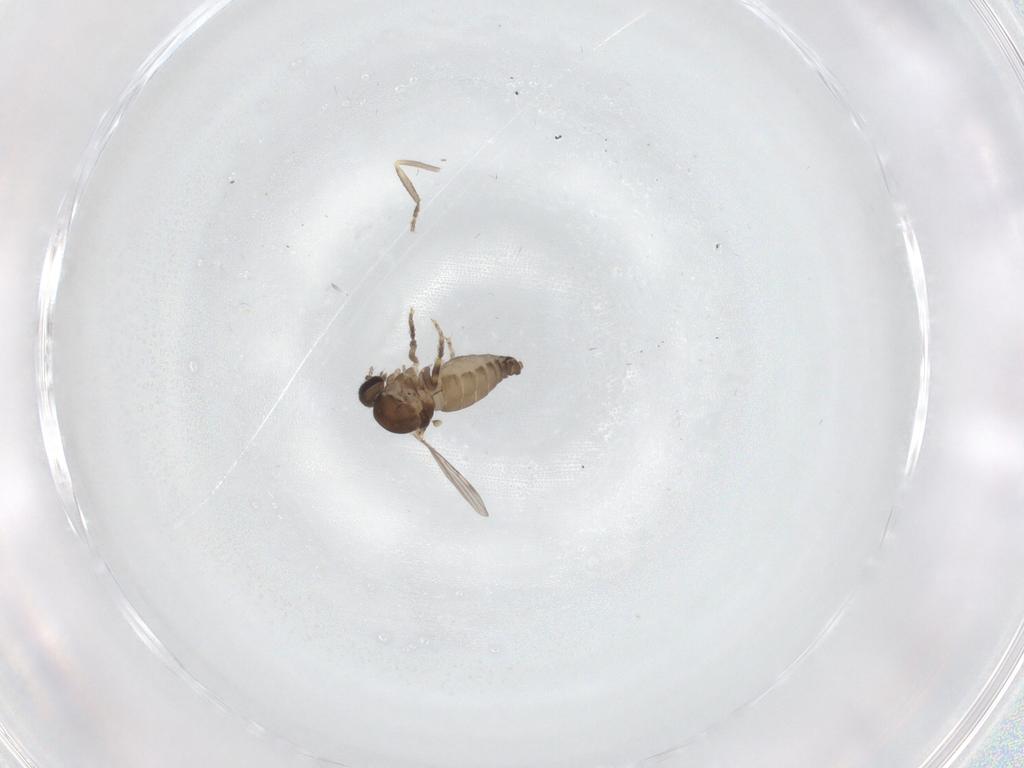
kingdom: Animalia
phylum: Arthropoda
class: Insecta
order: Diptera
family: Ceratopogonidae
